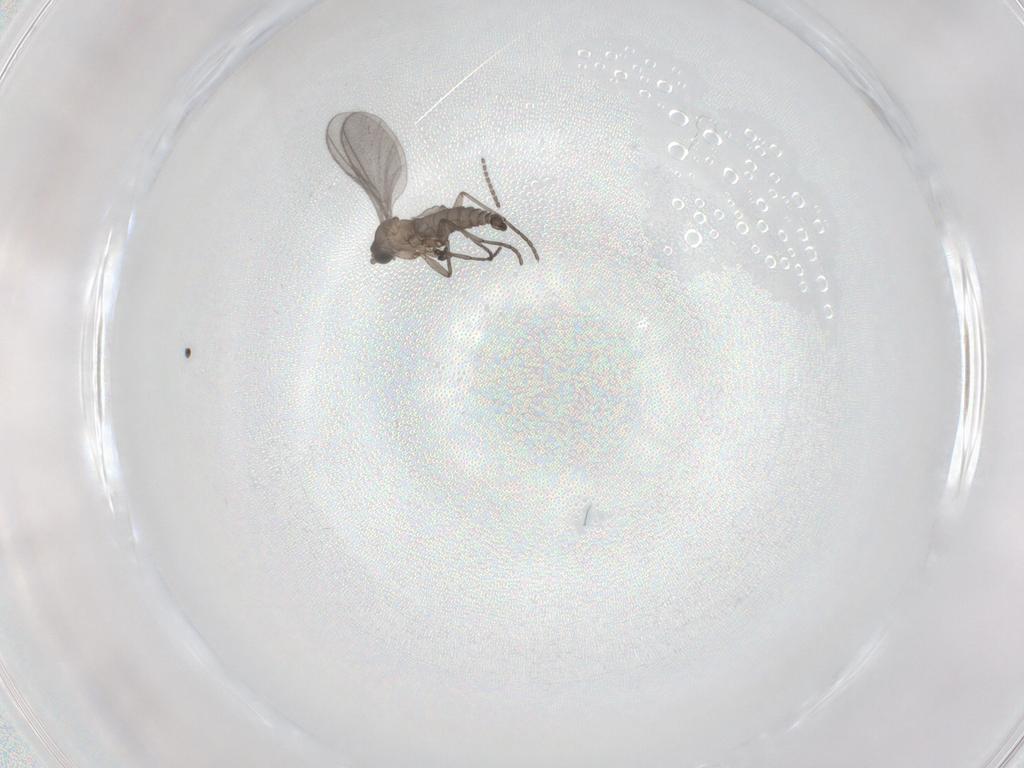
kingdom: Animalia
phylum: Arthropoda
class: Insecta
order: Diptera
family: Sciaridae
